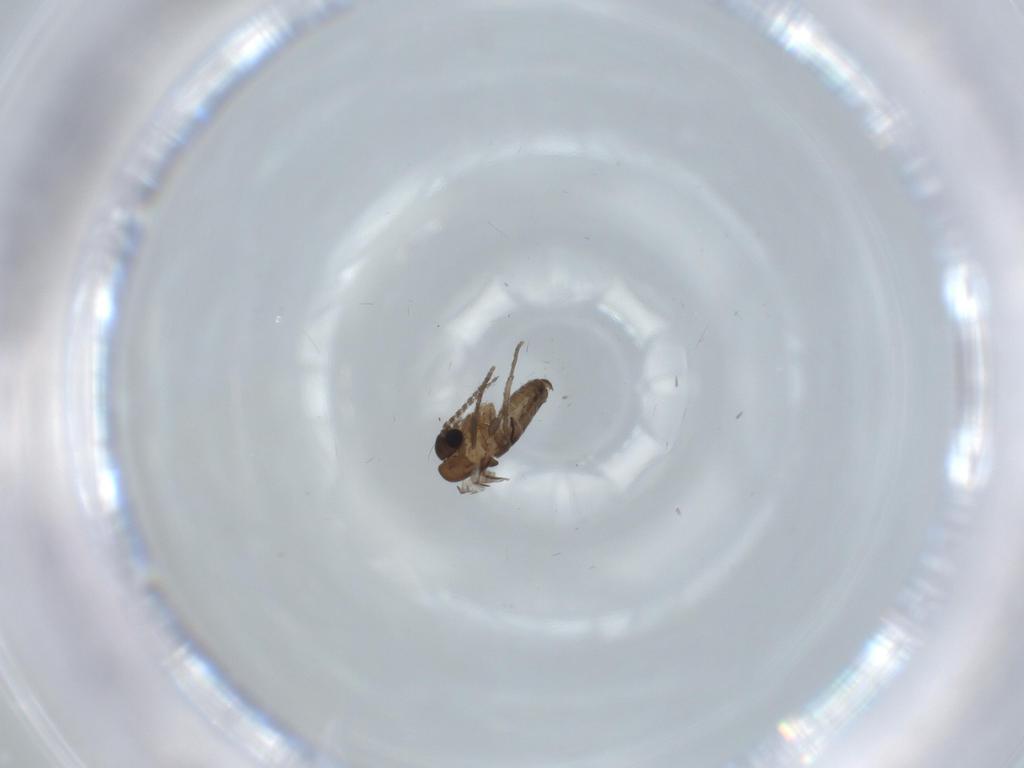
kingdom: Animalia
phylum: Arthropoda
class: Insecta
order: Diptera
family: Psychodidae
